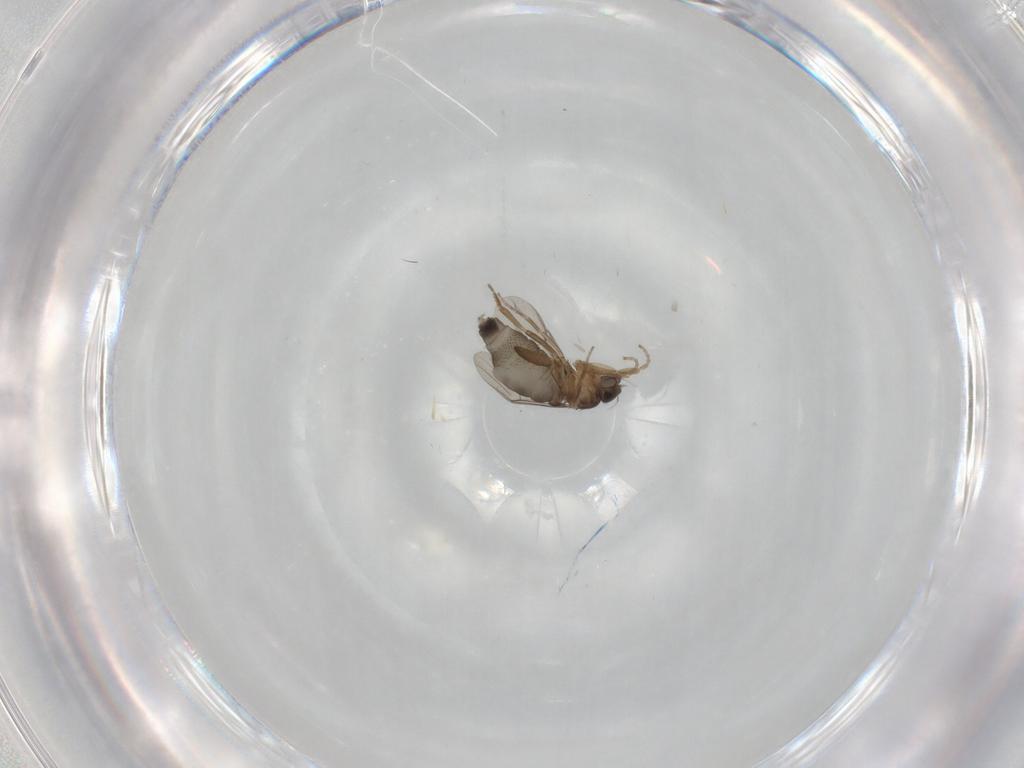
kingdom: Animalia
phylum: Arthropoda
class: Insecta
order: Diptera
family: Phoridae
